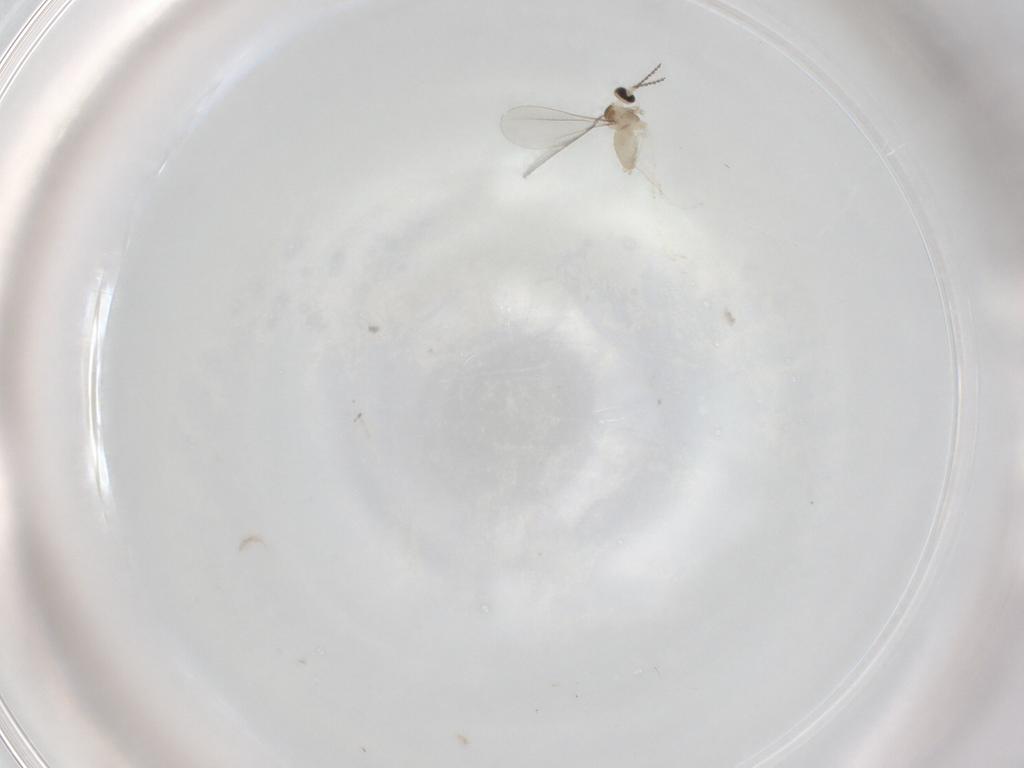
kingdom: Animalia
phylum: Arthropoda
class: Insecta
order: Diptera
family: Cecidomyiidae
